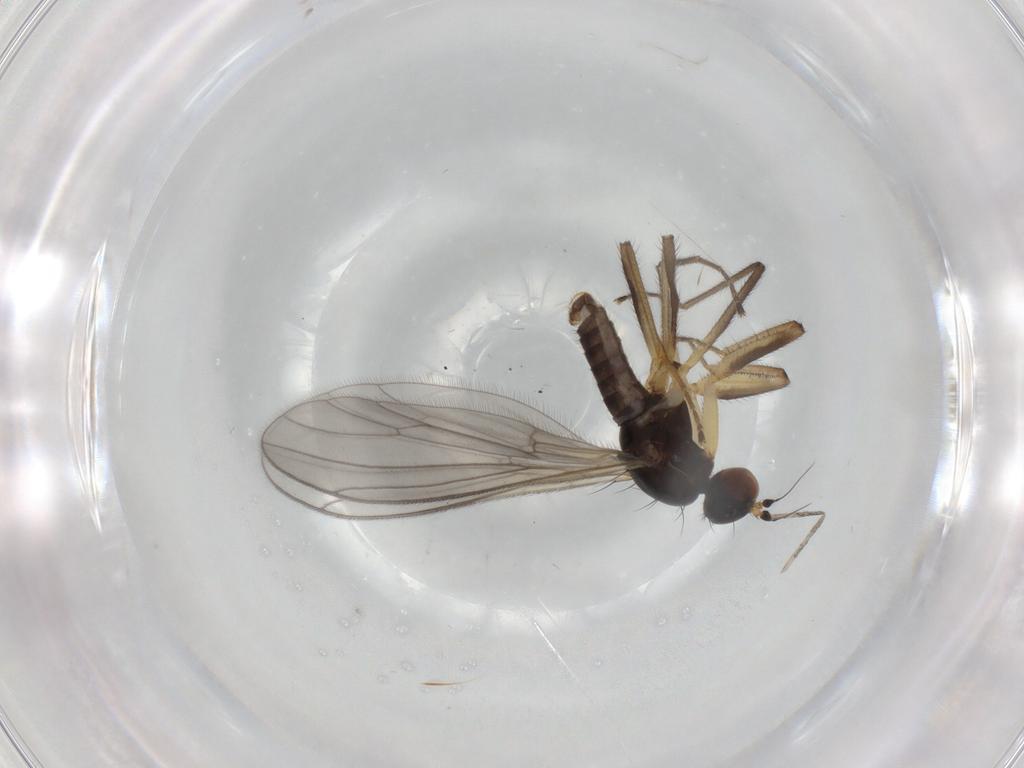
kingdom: Animalia
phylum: Arthropoda
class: Insecta
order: Diptera
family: Empididae
